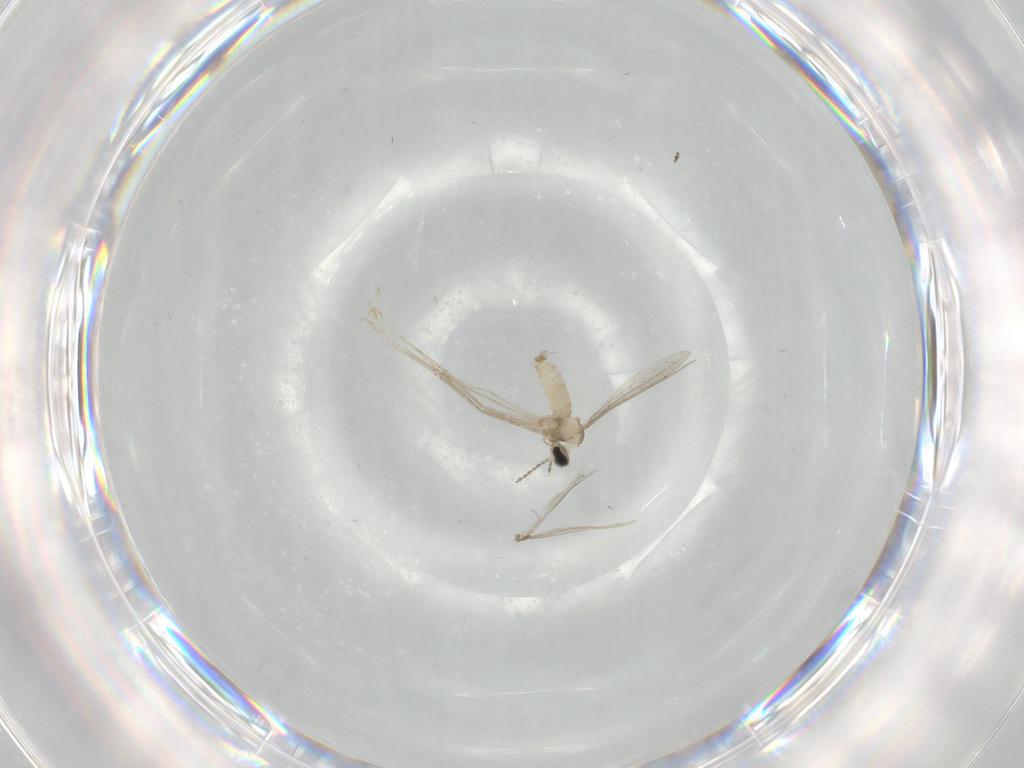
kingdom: Animalia
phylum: Arthropoda
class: Insecta
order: Diptera
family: Cecidomyiidae
